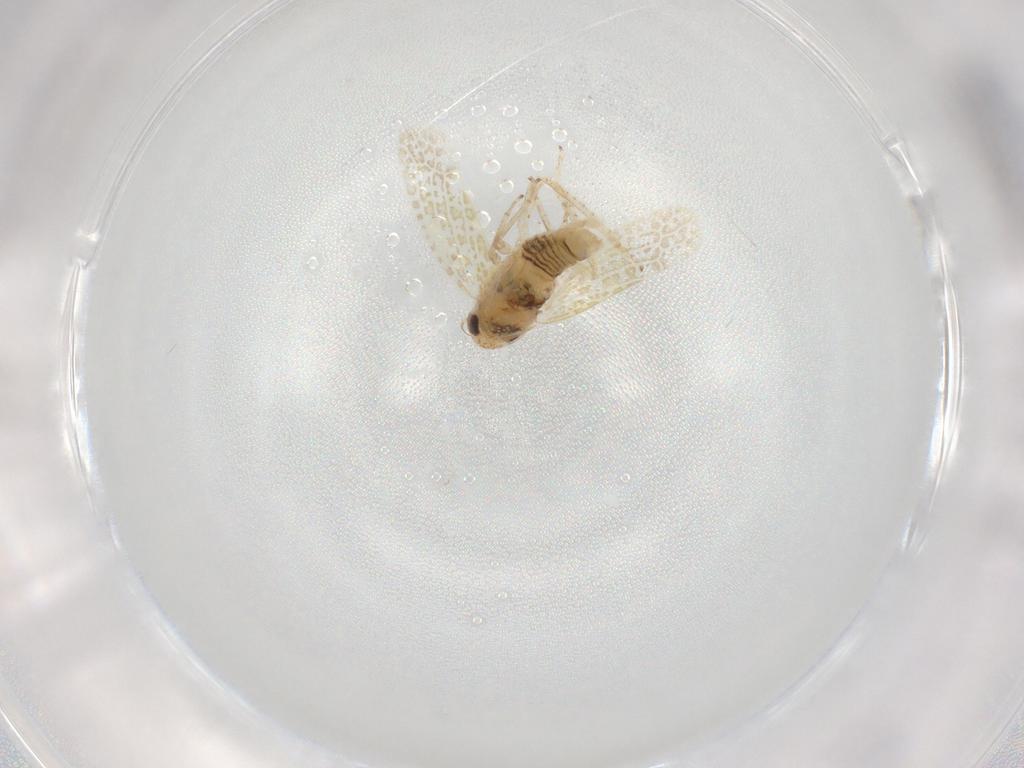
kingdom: Animalia
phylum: Arthropoda
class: Insecta
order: Hemiptera
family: Cicadellidae
